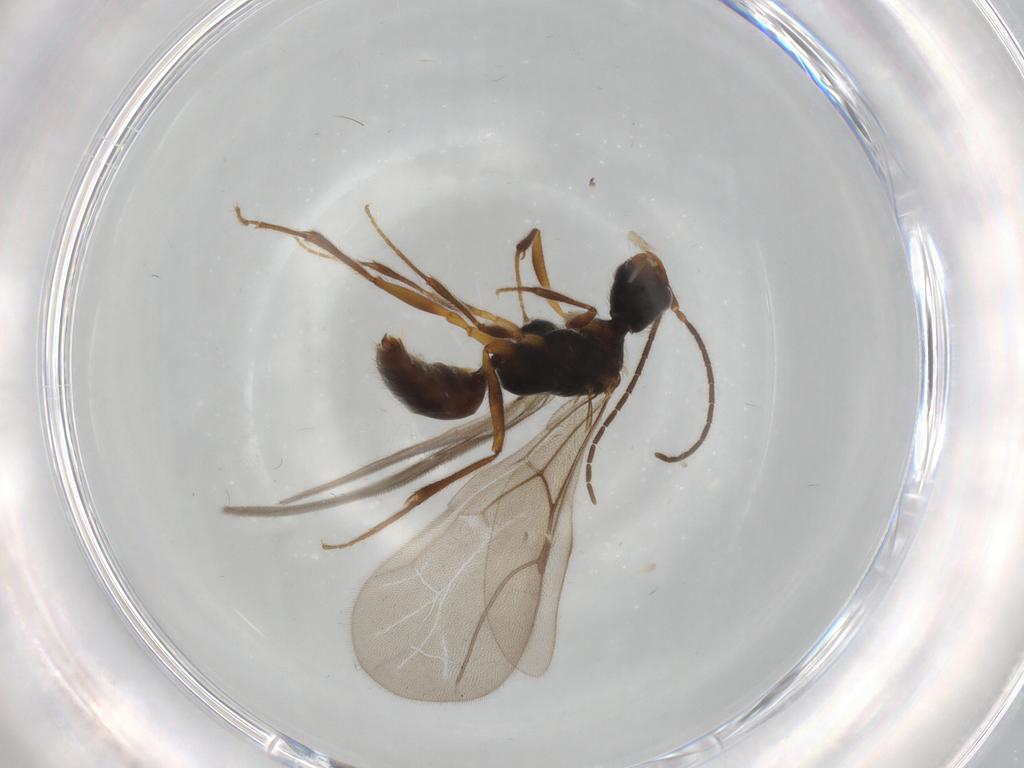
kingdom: Animalia
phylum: Arthropoda
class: Insecta
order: Hymenoptera
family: Bethylidae
